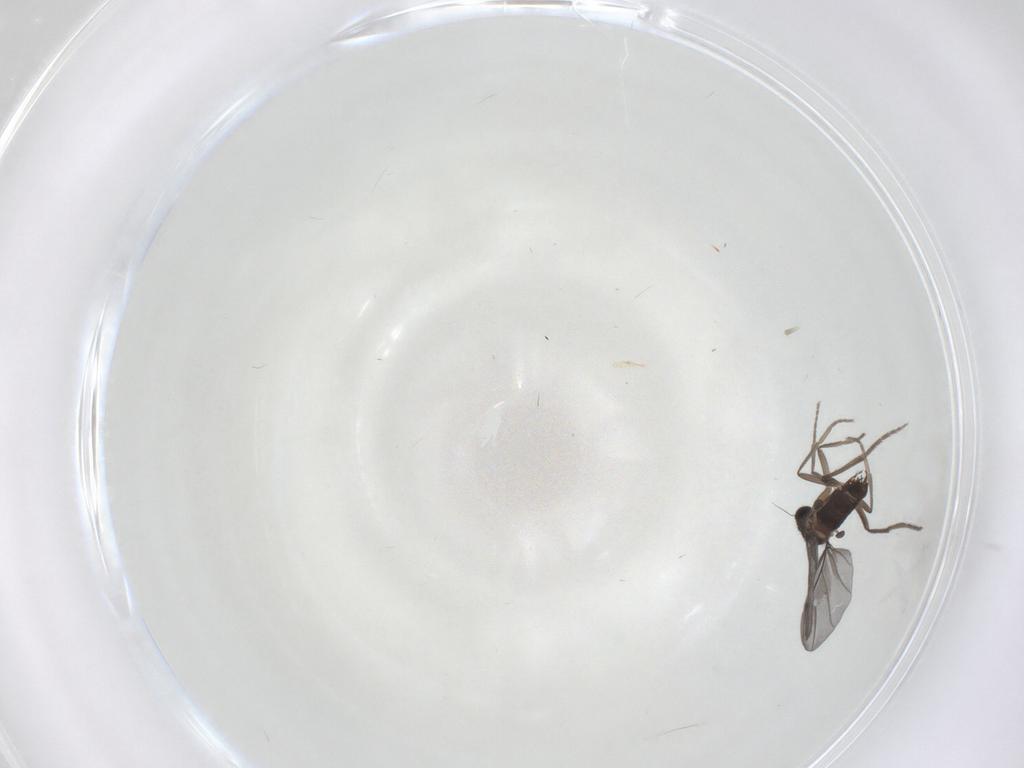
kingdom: Animalia
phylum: Arthropoda
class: Insecta
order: Diptera
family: Phoridae
